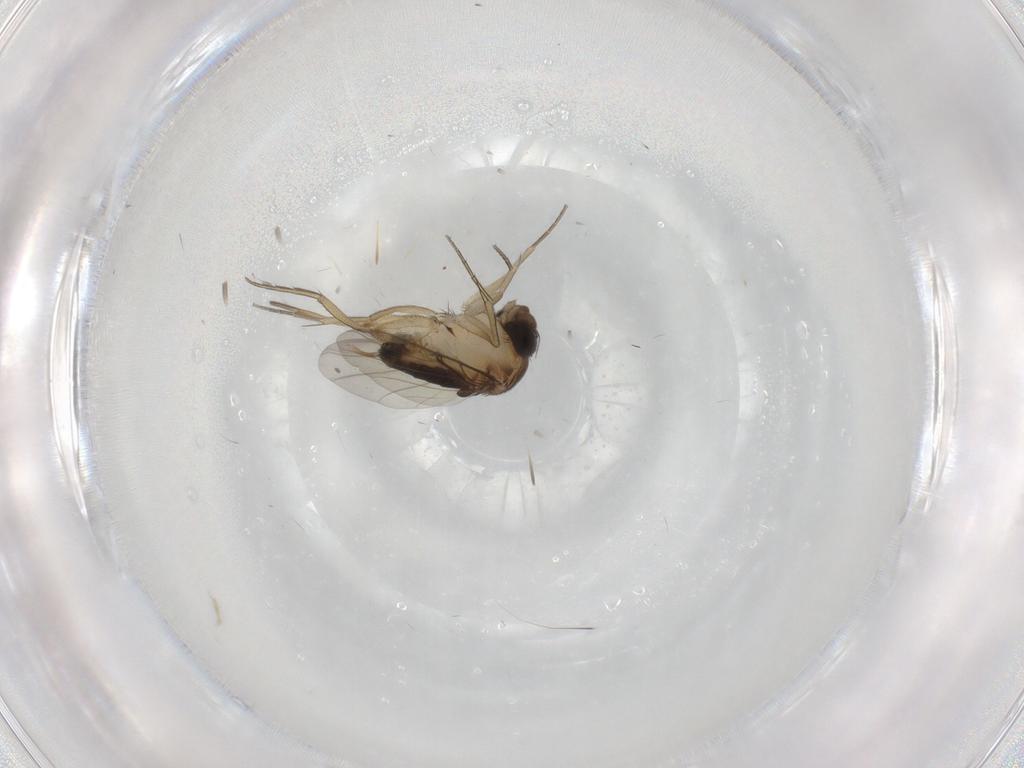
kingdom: Animalia
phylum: Arthropoda
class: Insecta
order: Diptera
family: Phoridae
